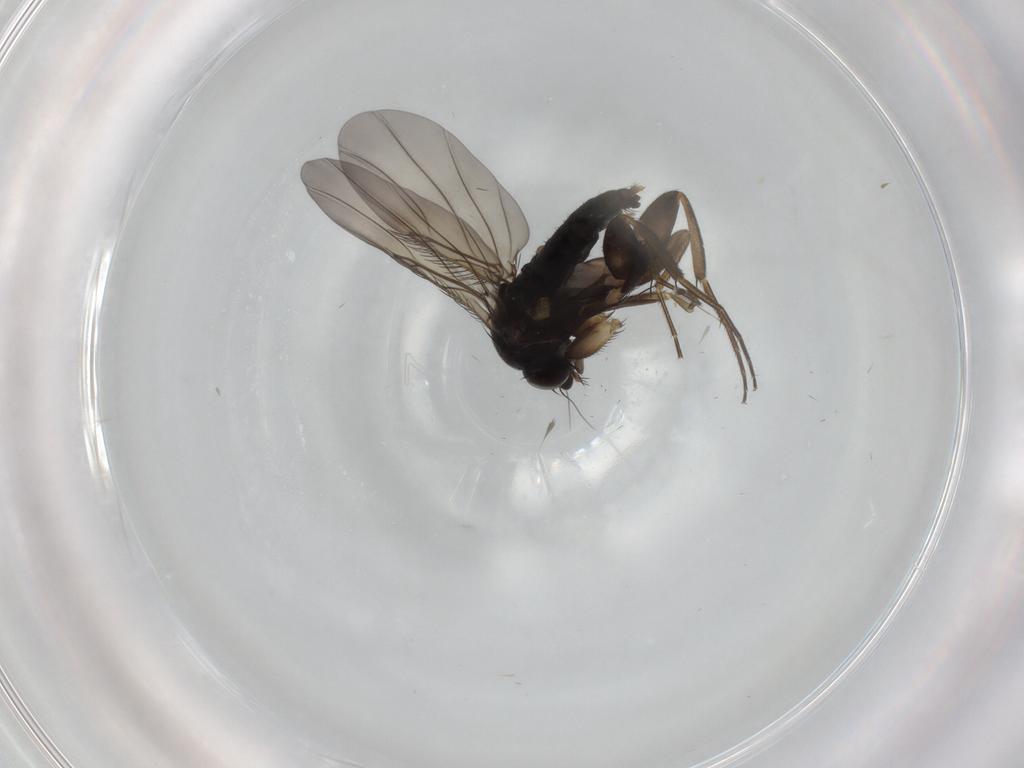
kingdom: Animalia
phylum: Arthropoda
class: Insecta
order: Diptera
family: Phoridae
